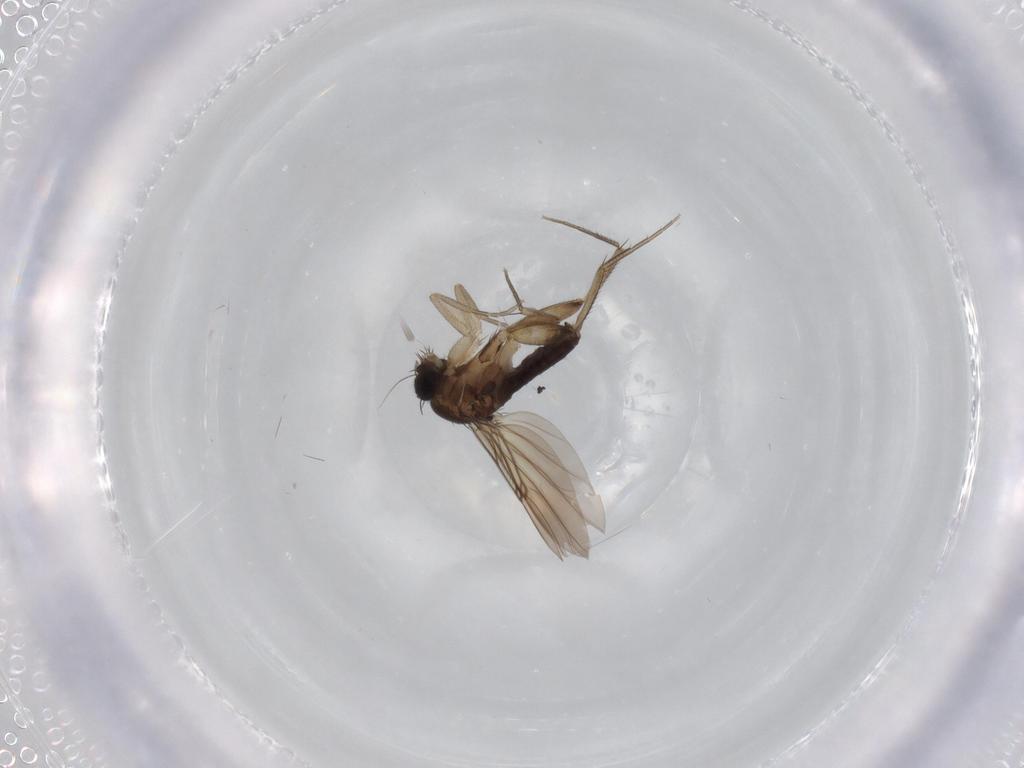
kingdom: Animalia
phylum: Arthropoda
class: Insecta
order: Diptera
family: Phoridae
